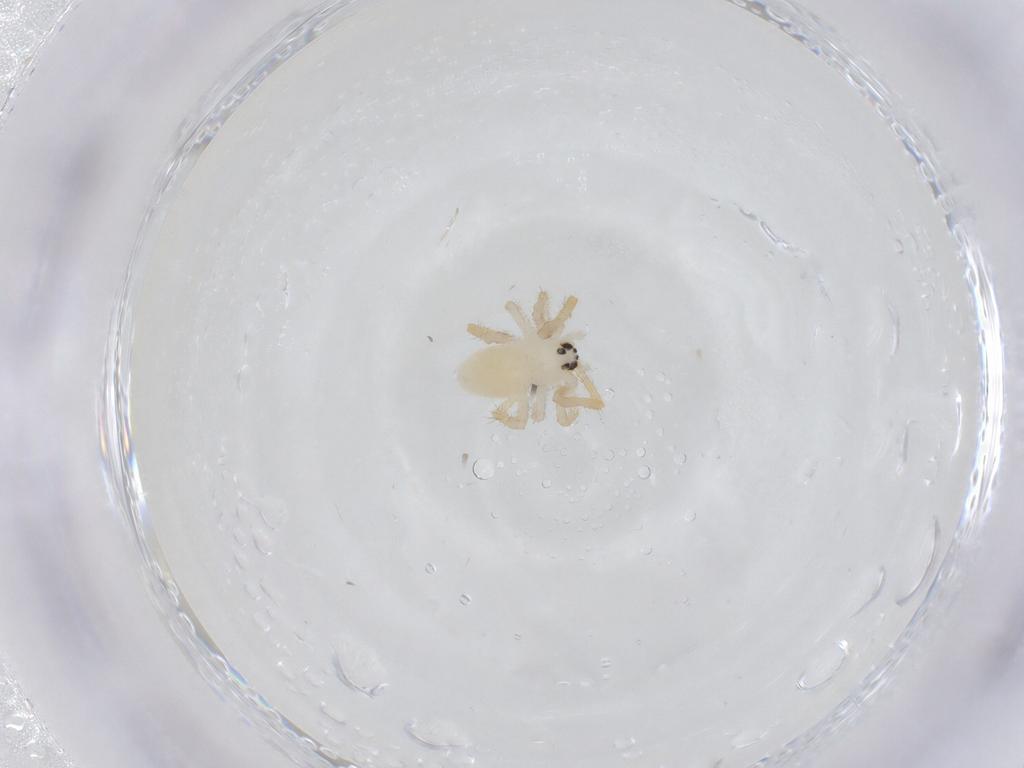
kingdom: Animalia
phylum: Arthropoda
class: Arachnida
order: Araneae
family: Theridiidae
